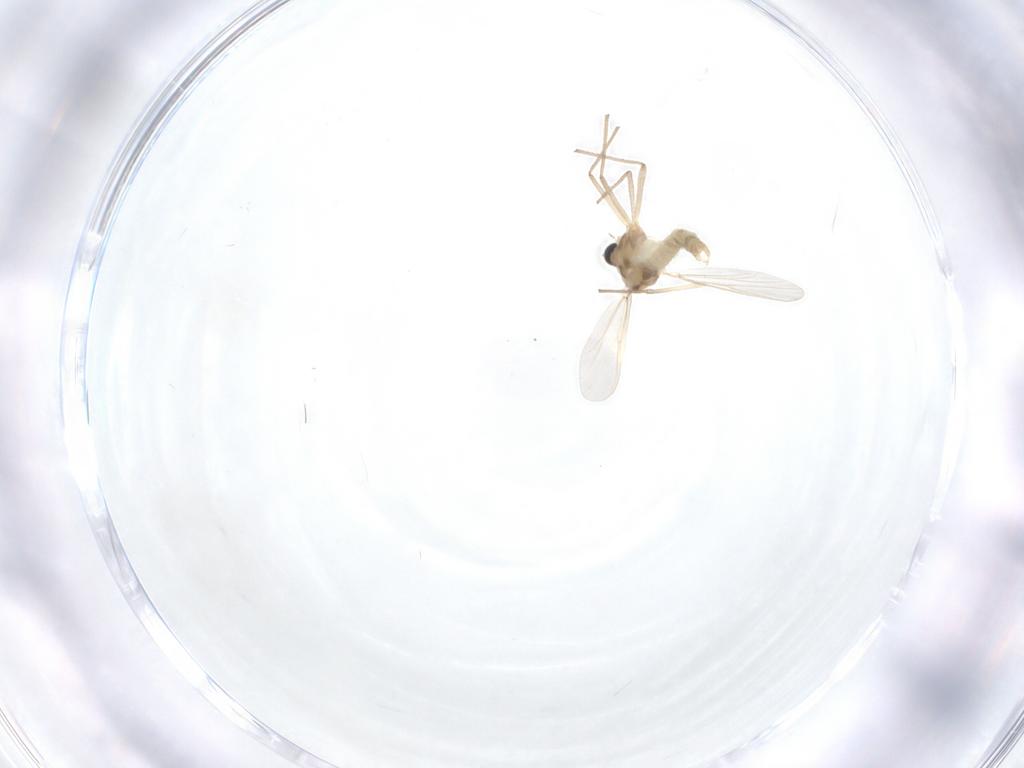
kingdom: Animalia
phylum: Arthropoda
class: Insecta
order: Diptera
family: Chironomidae
